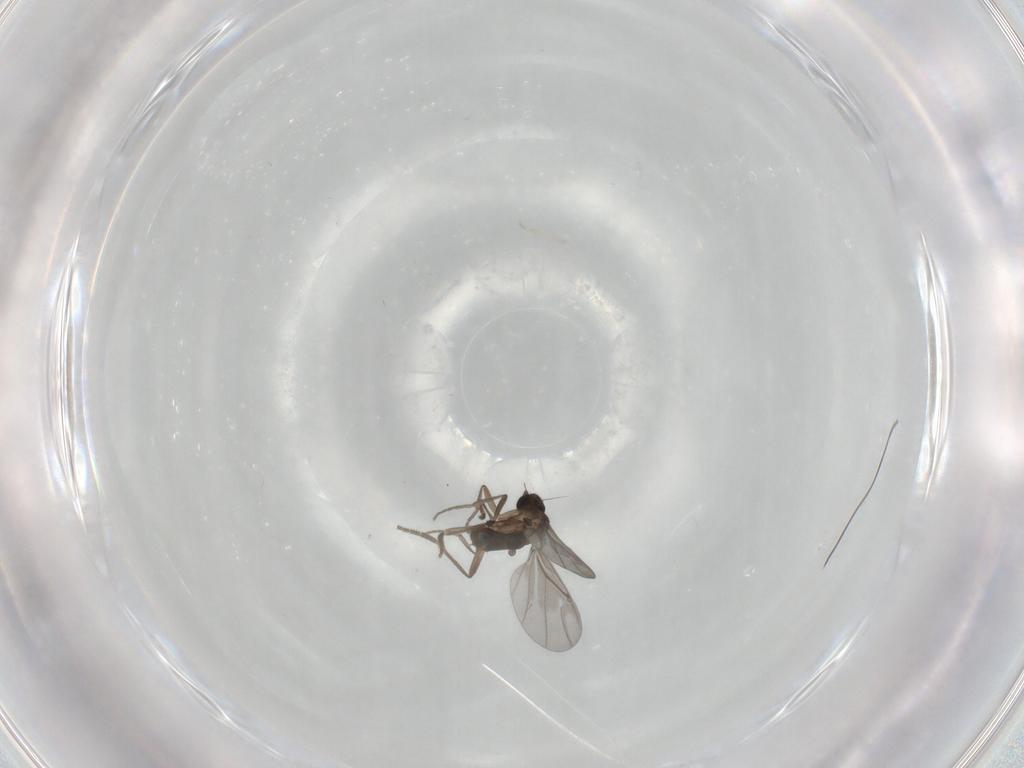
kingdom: Animalia
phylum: Arthropoda
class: Insecta
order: Diptera
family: Phoridae
